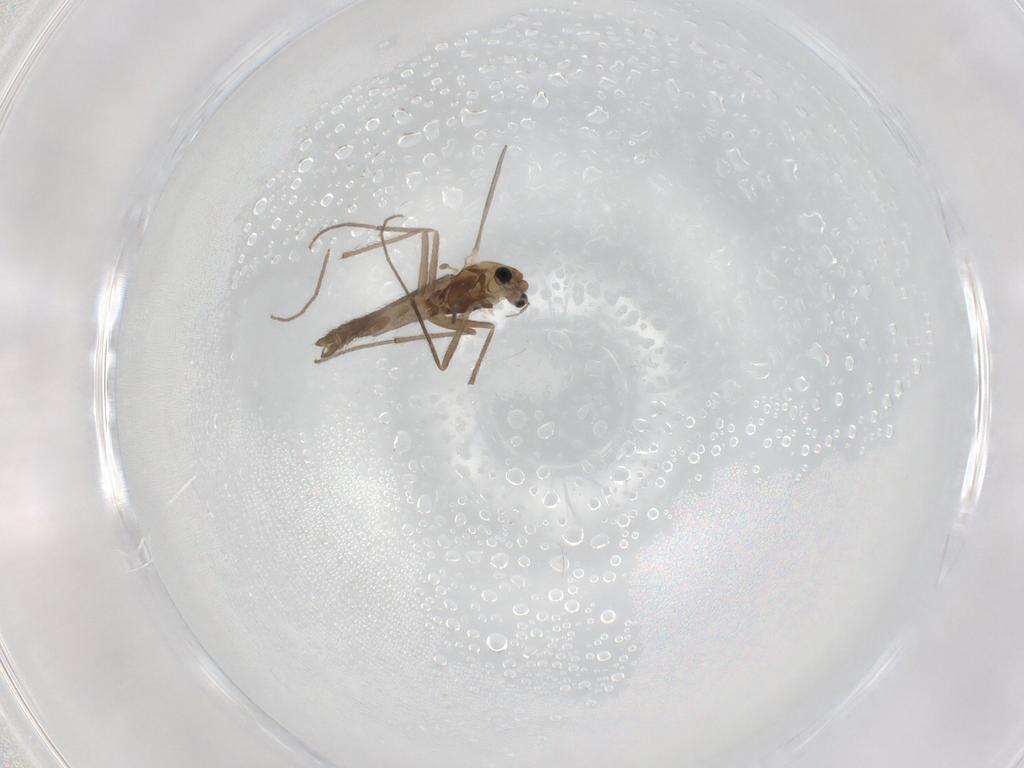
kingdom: Animalia
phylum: Arthropoda
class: Insecta
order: Diptera
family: Chironomidae
